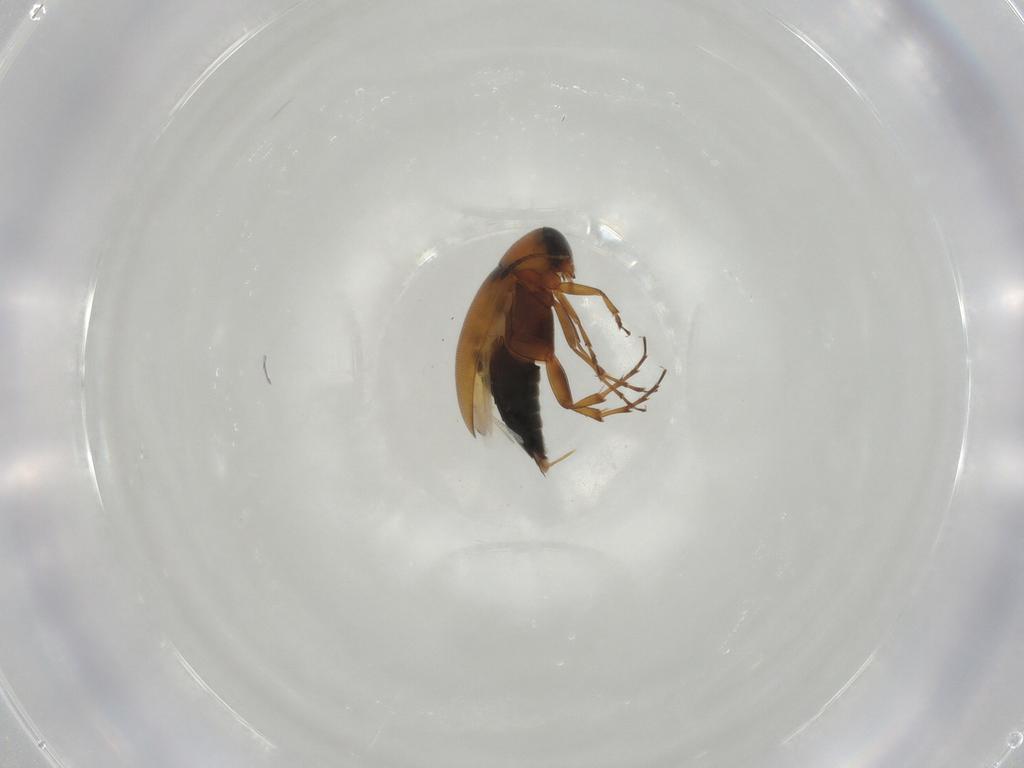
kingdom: Animalia
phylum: Arthropoda
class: Insecta
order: Coleoptera
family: Scraptiidae
